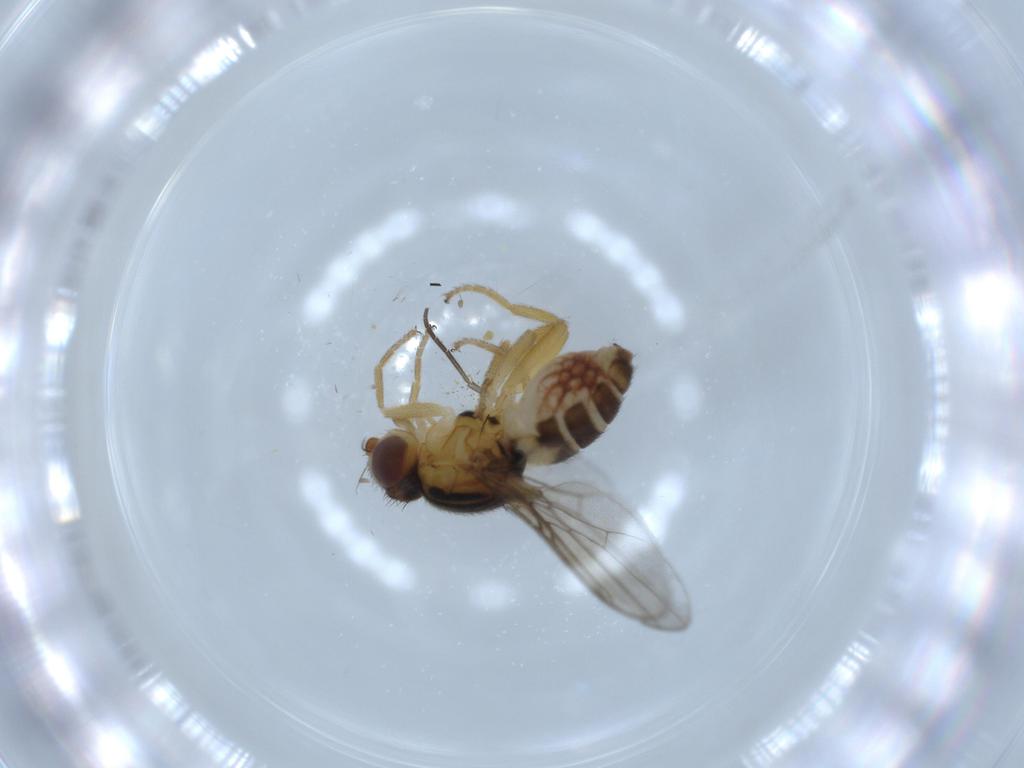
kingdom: Animalia
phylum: Arthropoda
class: Insecta
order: Diptera
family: Chloropidae
